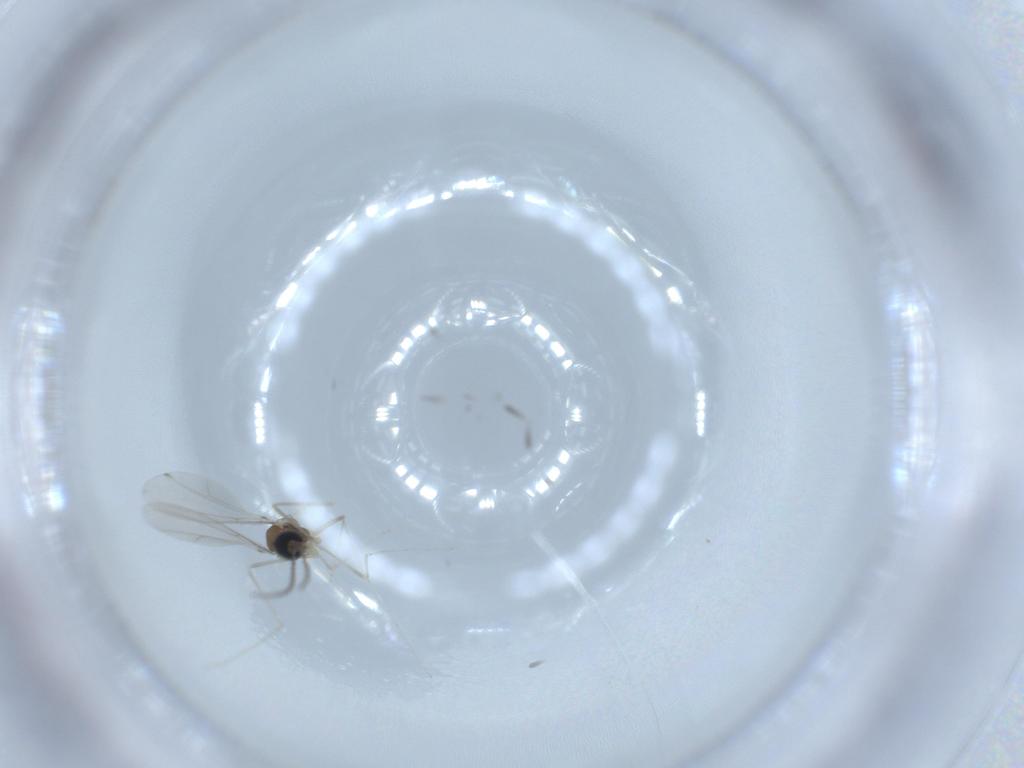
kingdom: Animalia
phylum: Arthropoda
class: Insecta
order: Diptera
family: Cecidomyiidae
